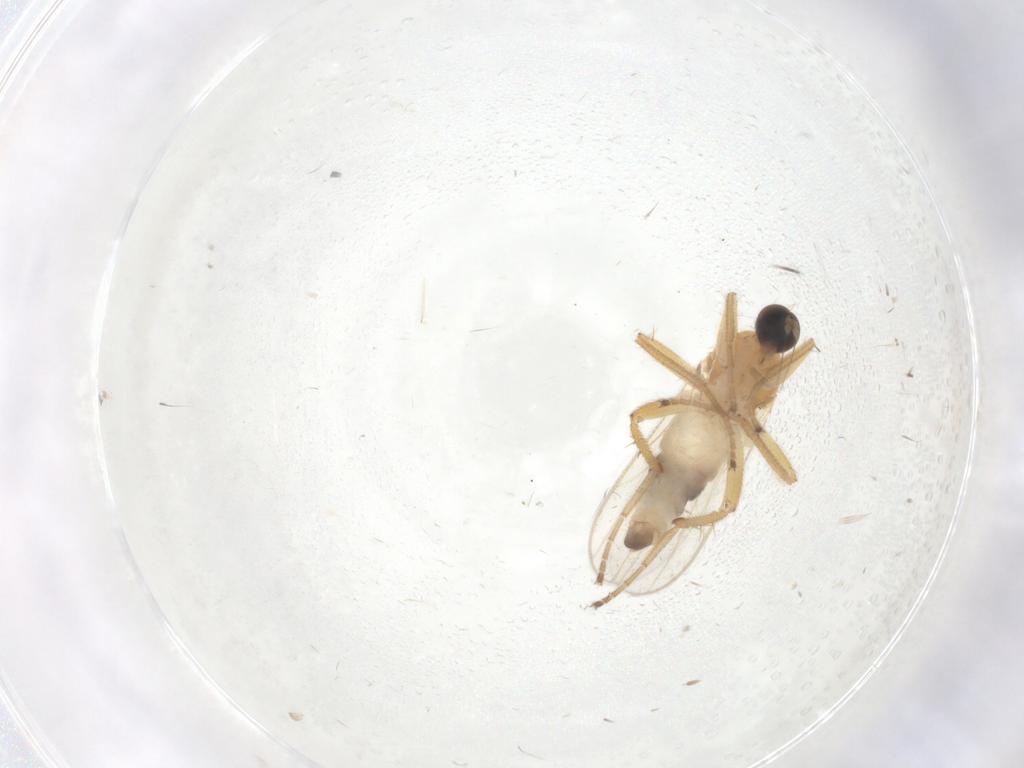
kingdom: Animalia
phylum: Arthropoda
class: Insecta
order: Diptera
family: Hybotidae
